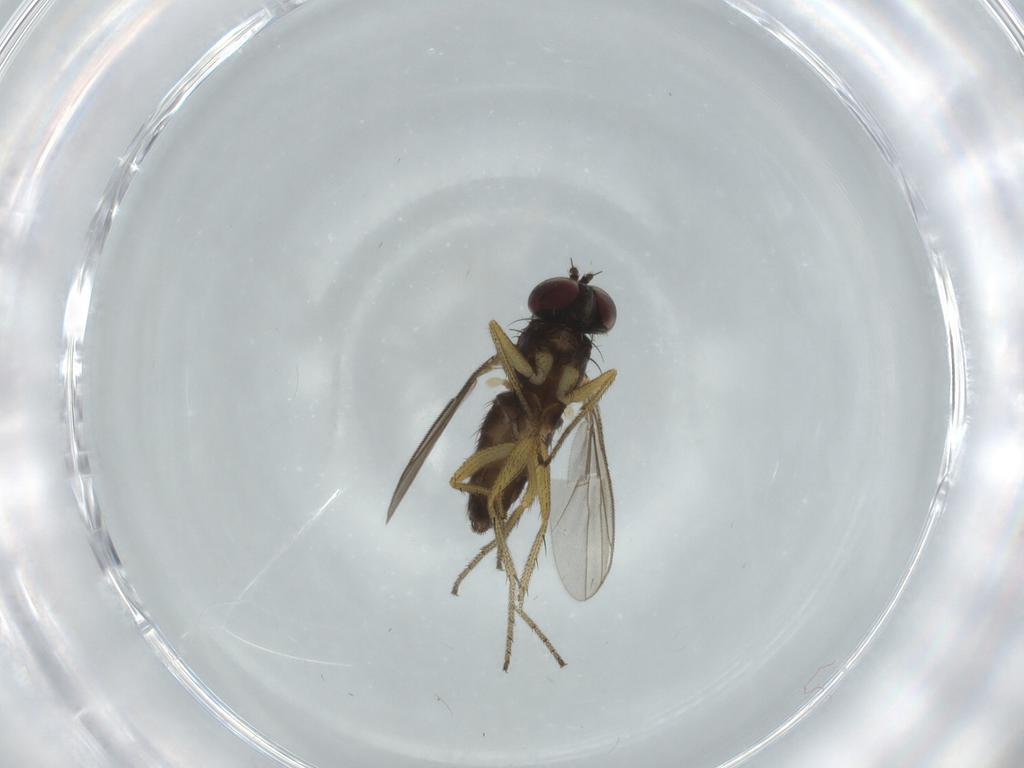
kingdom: Animalia
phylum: Arthropoda
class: Insecta
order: Diptera
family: Dolichopodidae
